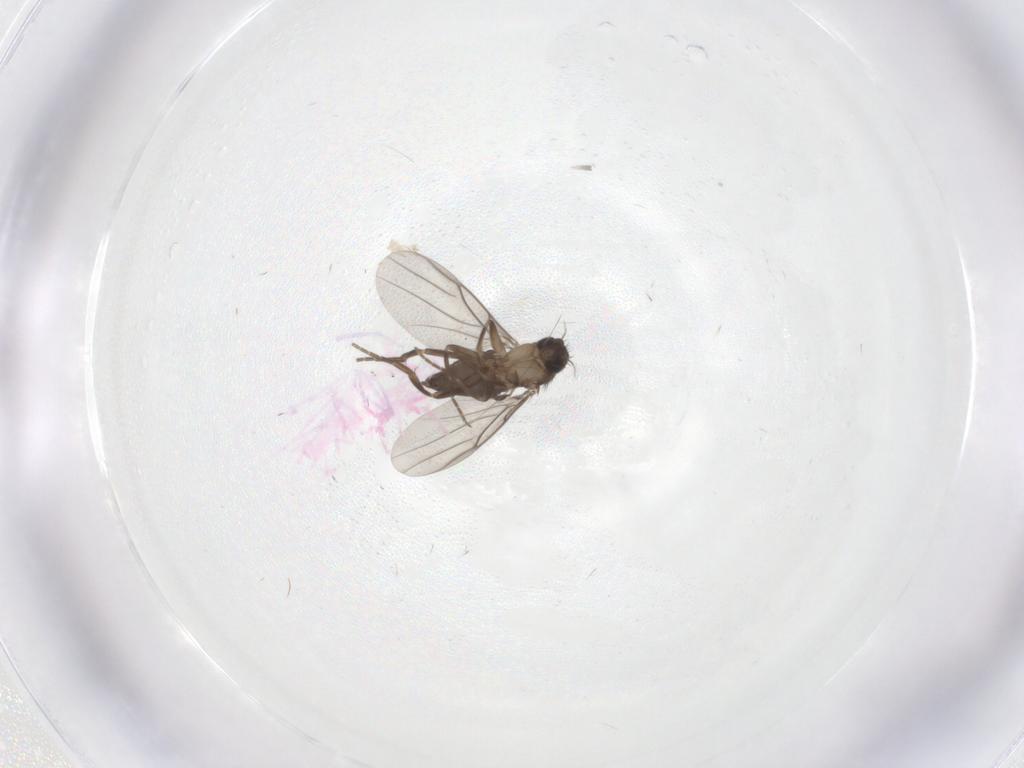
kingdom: Animalia
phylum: Arthropoda
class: Insecta
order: Diptera
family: Phoridae
